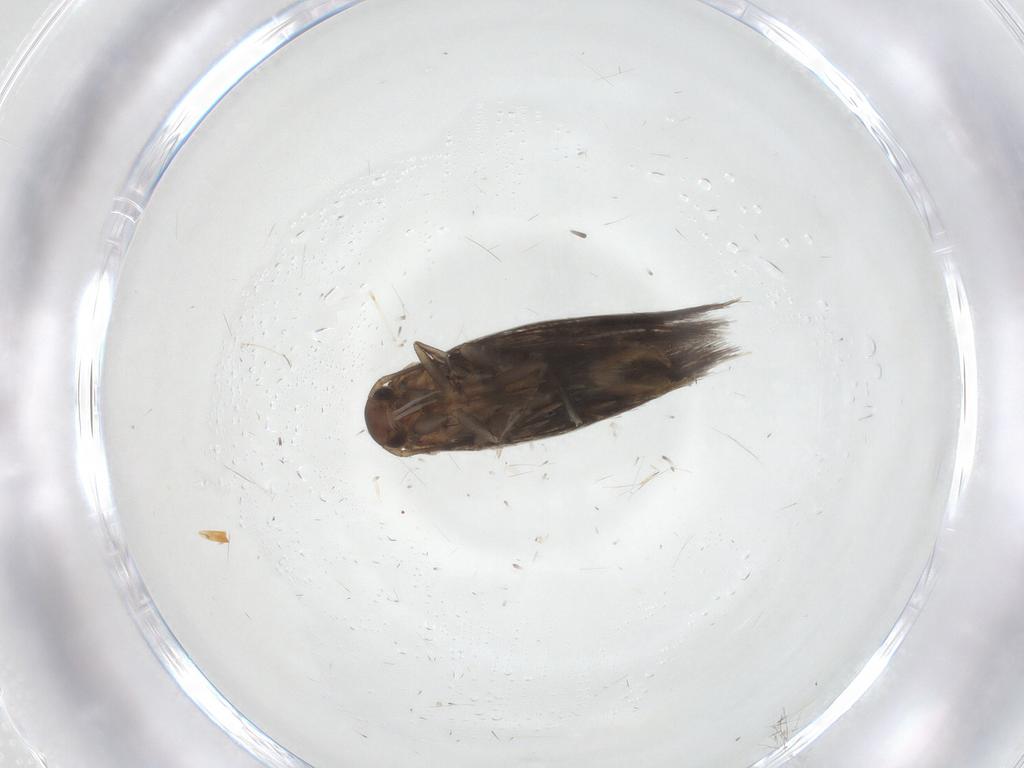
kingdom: Animalia
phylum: Arthropoda
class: Insecta
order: Lepidoptera
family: Elachistidae
